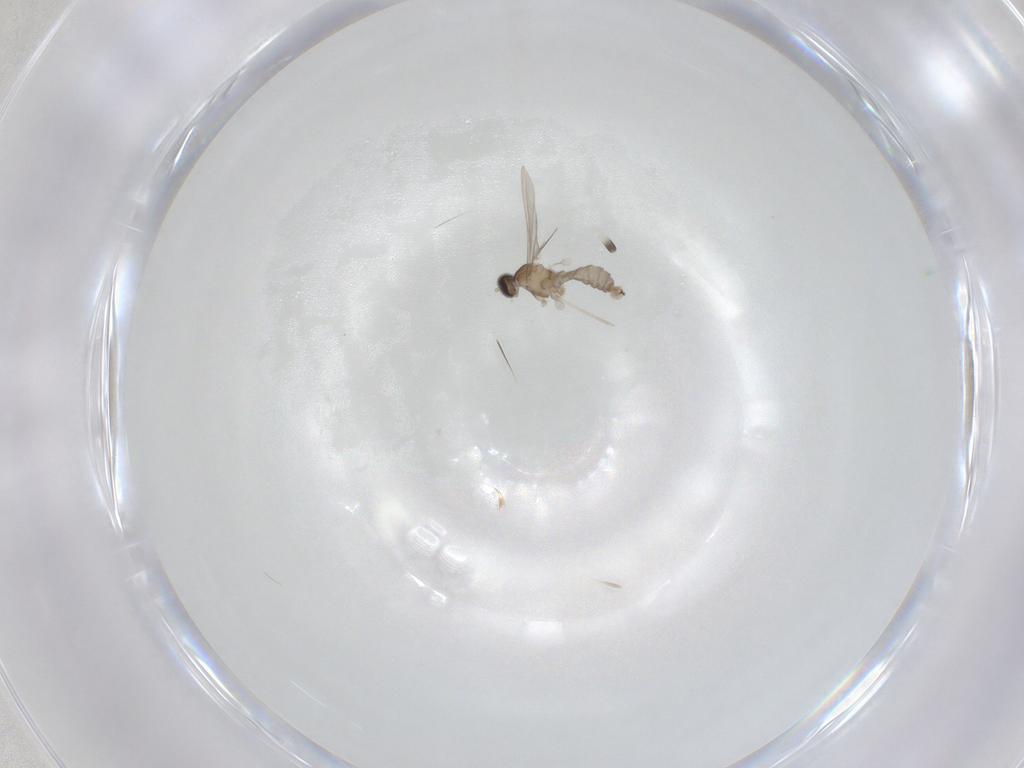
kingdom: Animalia
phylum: Arthropoda
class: Insecta
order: Diptera
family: Cecidomyiidae
